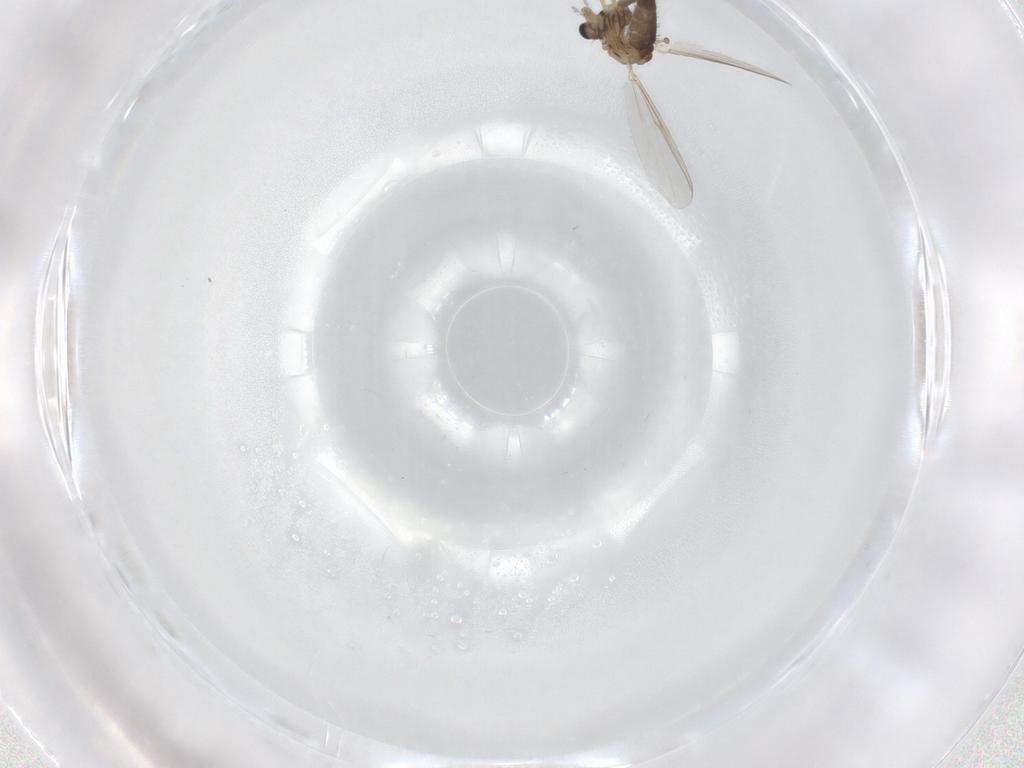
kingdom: Animalia
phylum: Arthropoda
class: Insecta
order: Diptera
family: Chironomidae
